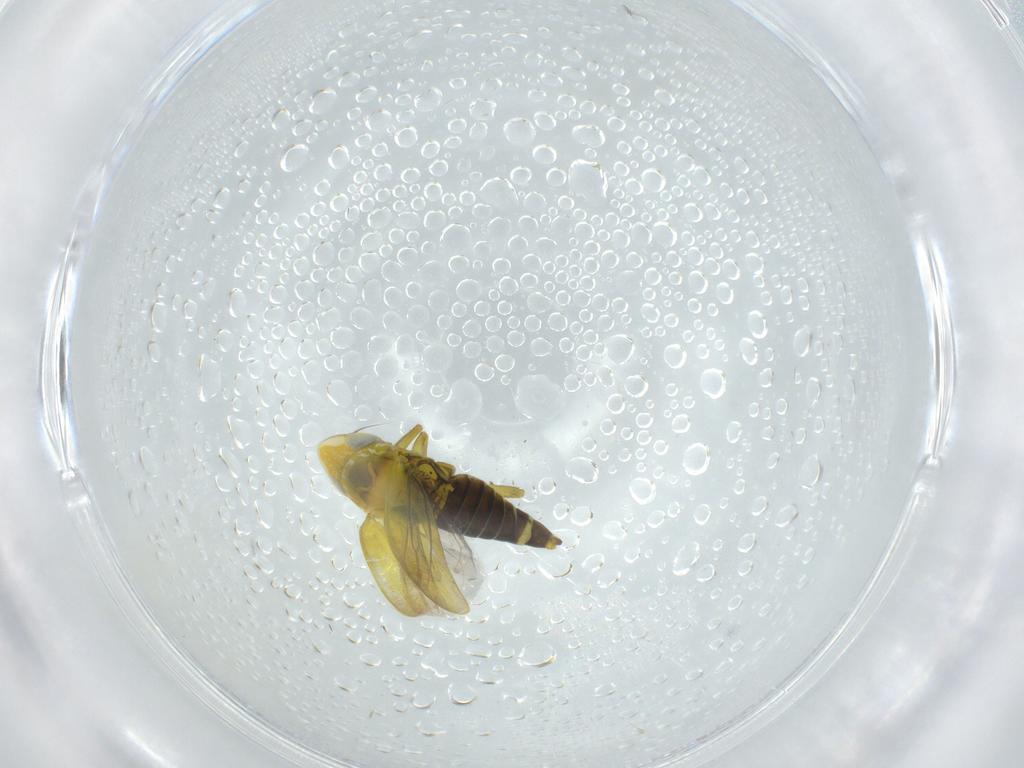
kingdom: Animalia
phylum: Arthropoda
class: Insecta
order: Hemiptera
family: Cicadellidae
